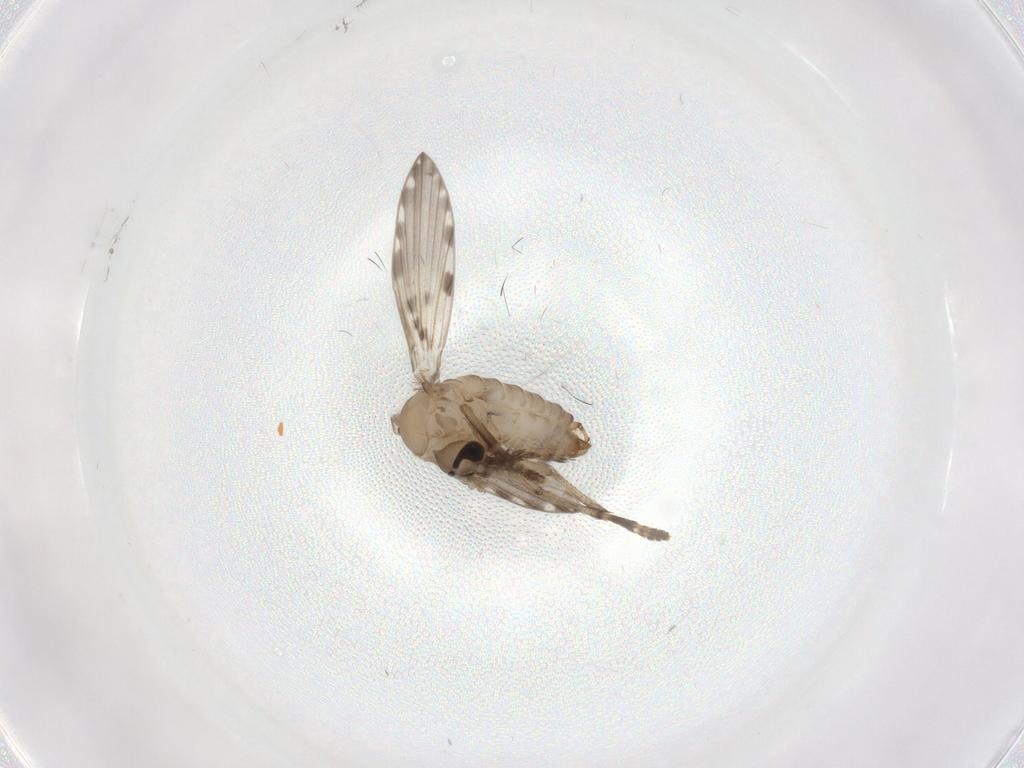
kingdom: Animalia
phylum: Arthropoda
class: Insecta
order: Diptera
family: Psychodidae
